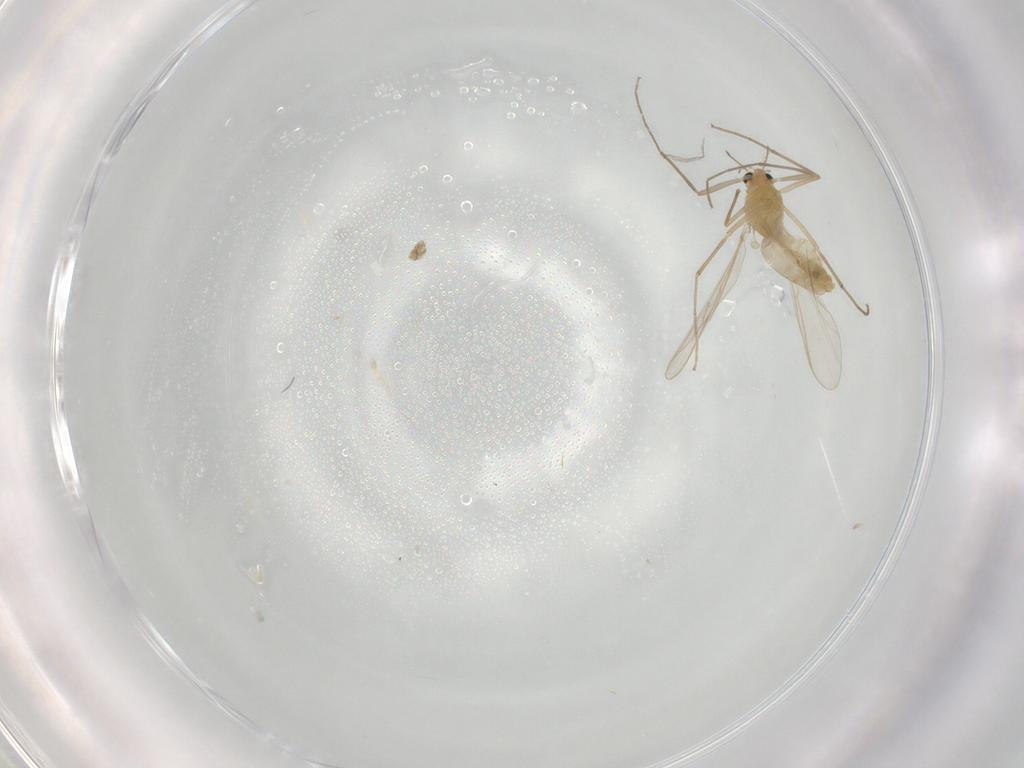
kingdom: Animalia
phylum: Arthropoda
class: Insecta
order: Diptera
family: Chironomidae
